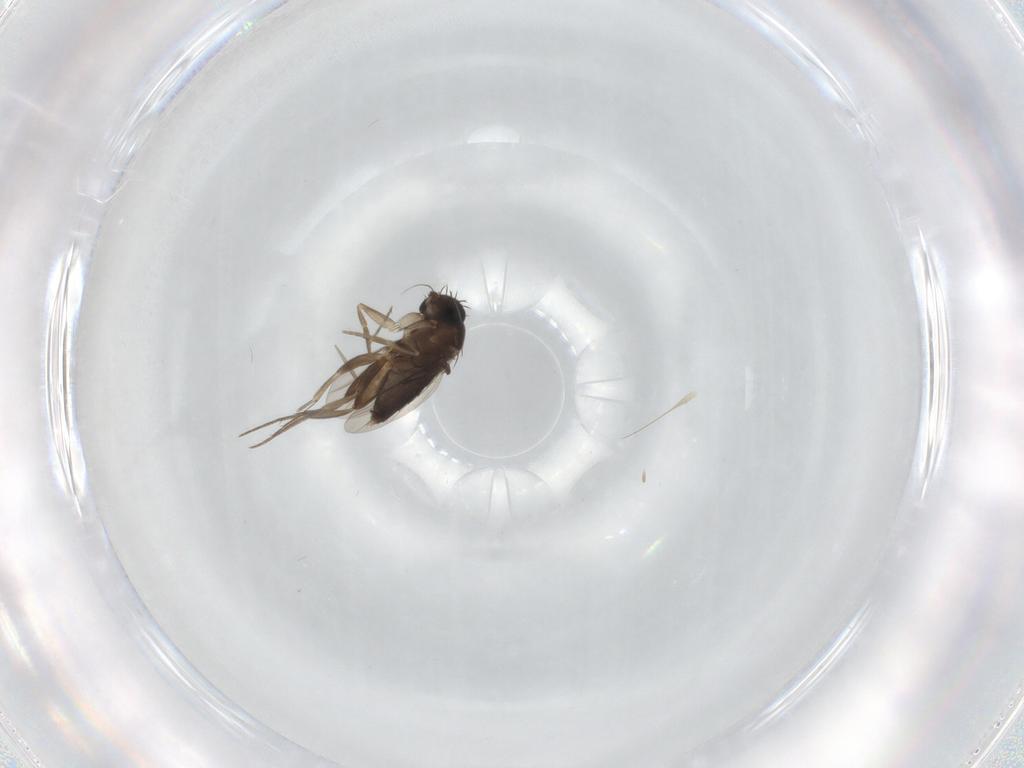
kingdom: Animalia
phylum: Arthropoda
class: Insecta
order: Diptera
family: Phoridae
